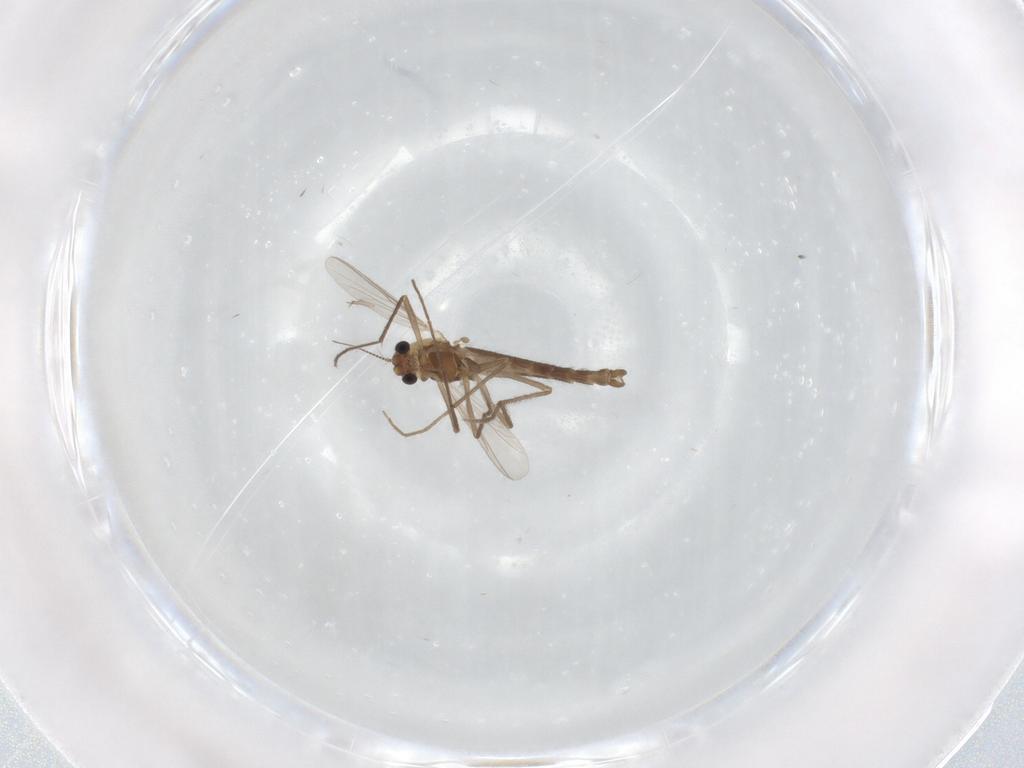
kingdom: Animalia
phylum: Arthropoda
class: Insecta
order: Diptera
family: Chironomidae
